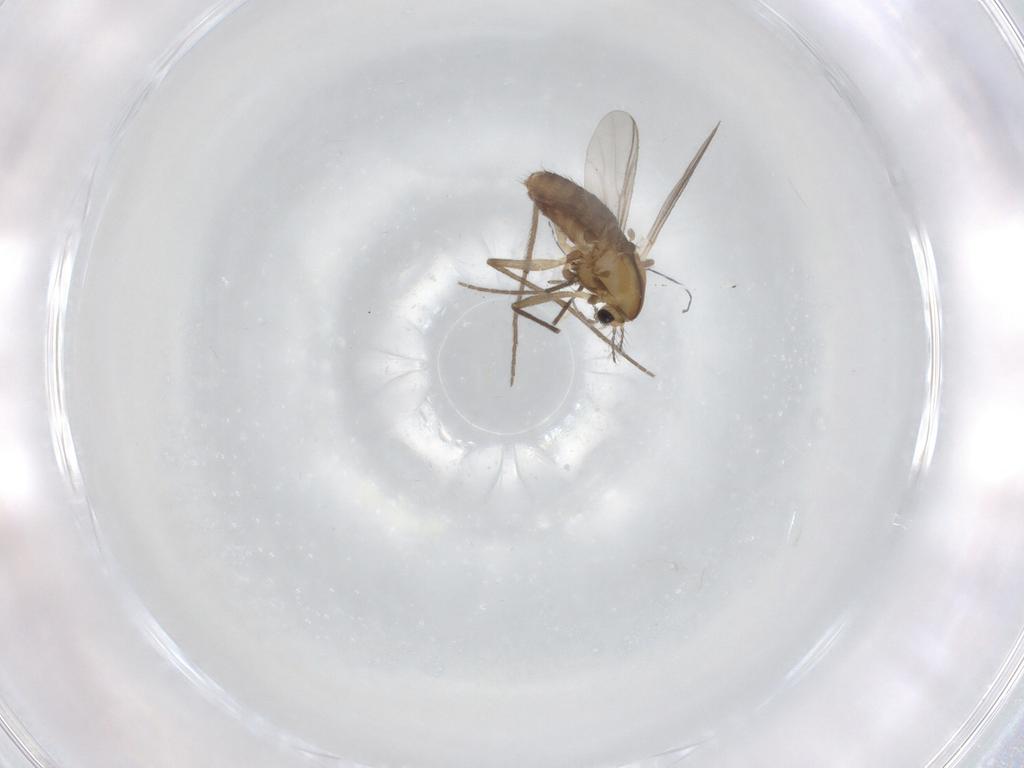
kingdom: Animalia
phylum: Arthropoda
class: Insecta
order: Diptera
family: Chironomidae
